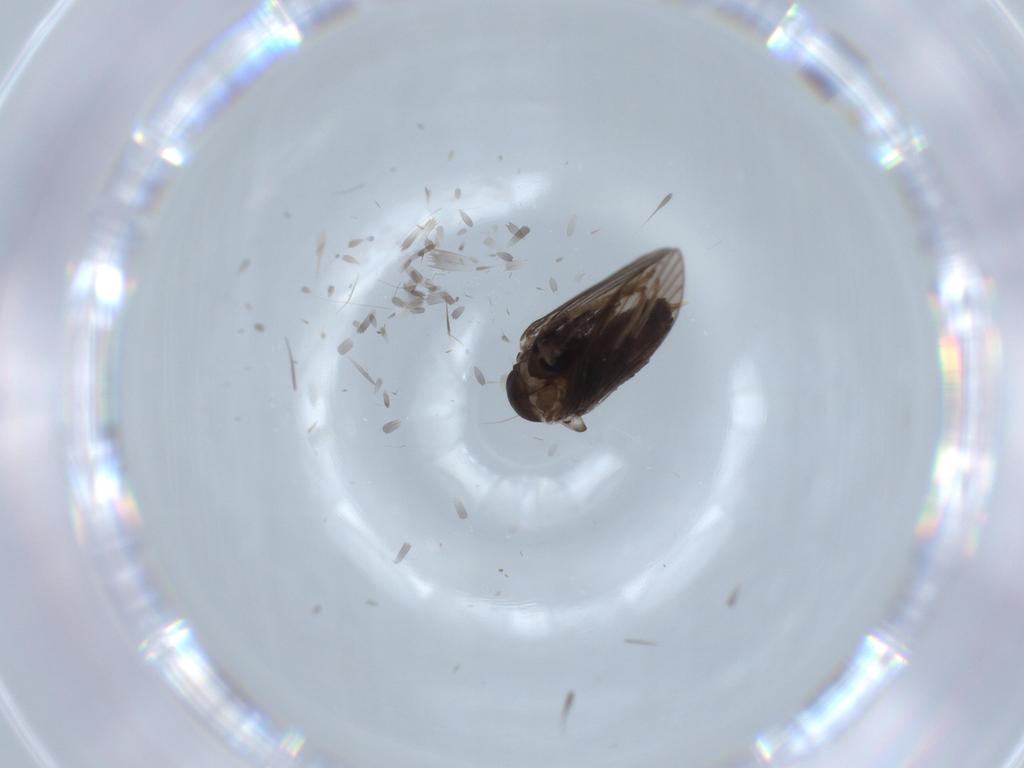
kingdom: Animalia
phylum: Arthropoda
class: Insecta
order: Diptera
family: Psychodidae
